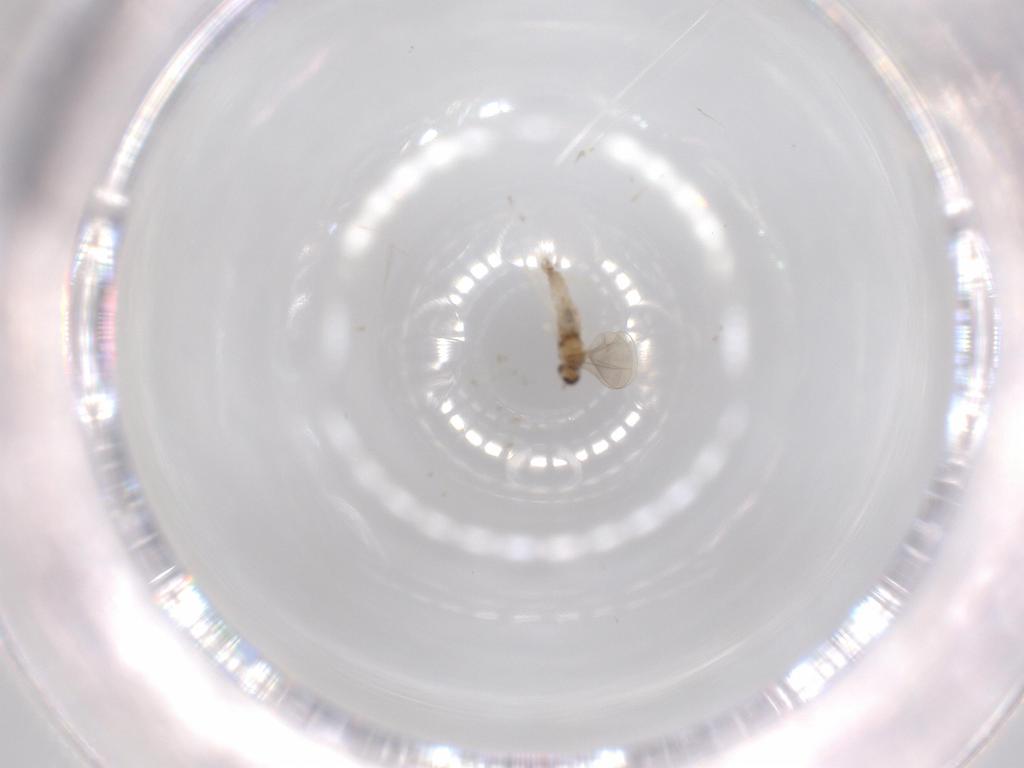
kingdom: Animalia
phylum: Arthropoda
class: Insecta
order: Diptera
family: Cecidomyiidae
